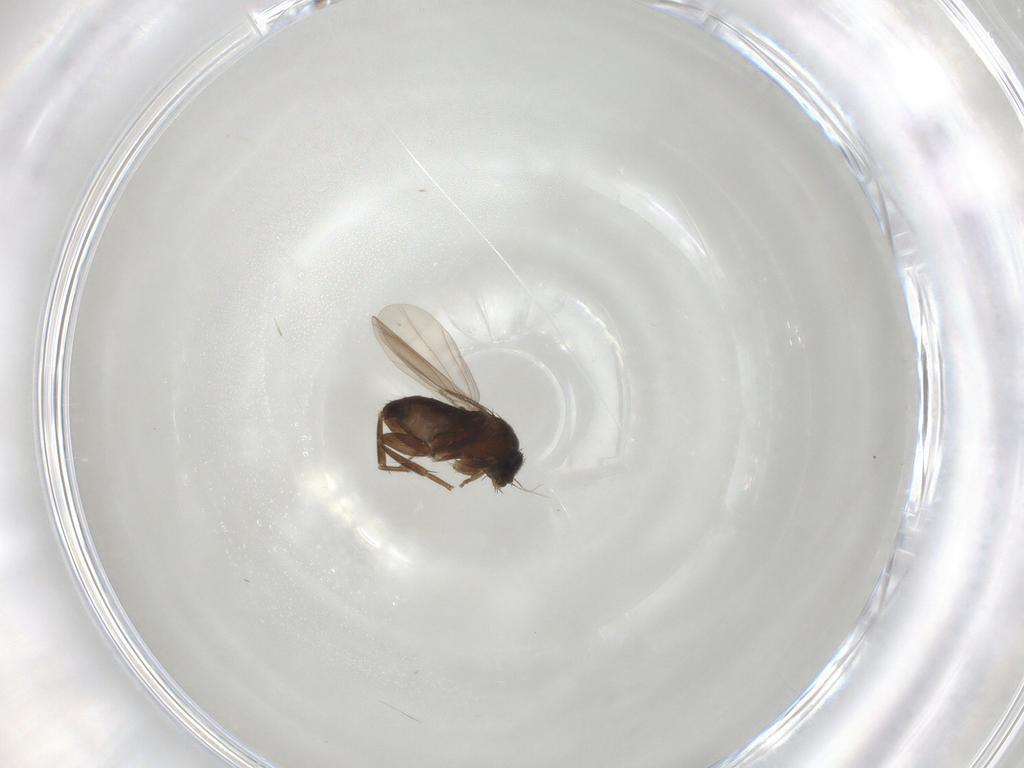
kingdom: Animalia
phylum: Arthropoda
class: Insecta
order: Diptera
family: Phoridae
